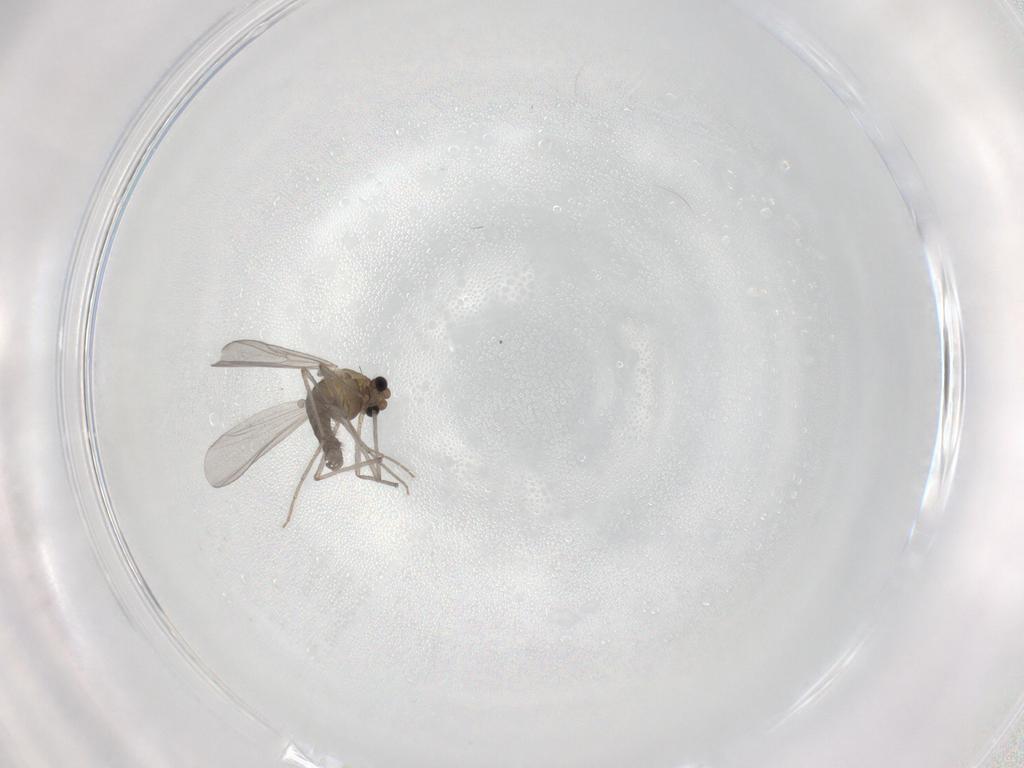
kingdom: Animalia
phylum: Arthropoda
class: Insecta
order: Diptera
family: Chironomidae
